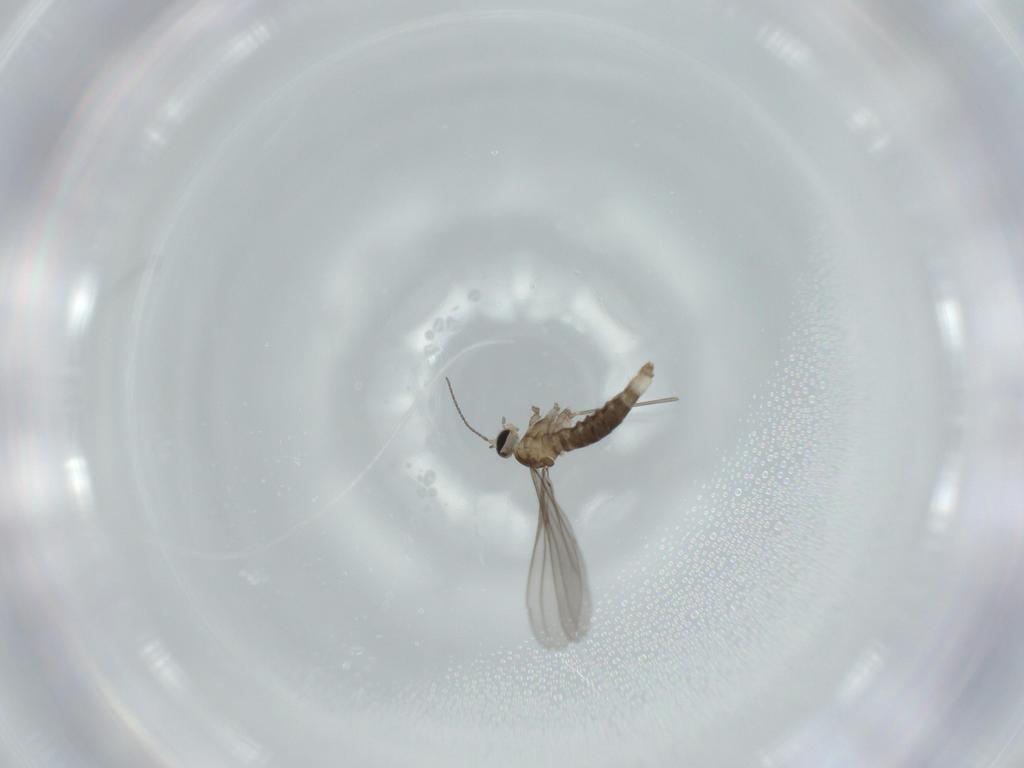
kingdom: Animalia
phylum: Arthropoda
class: Insecta
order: Diptera
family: Cecidomyiidae
